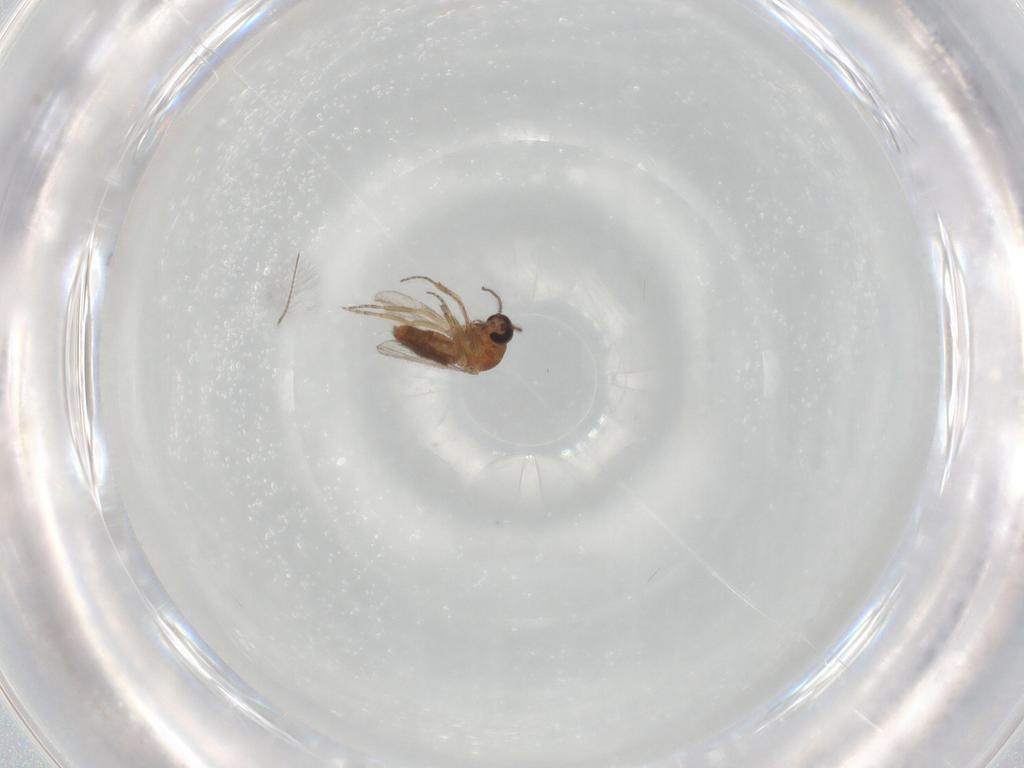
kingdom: Animalia
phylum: Arthropoda
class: Insecta
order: Diptera
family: Ceratopogonidae
